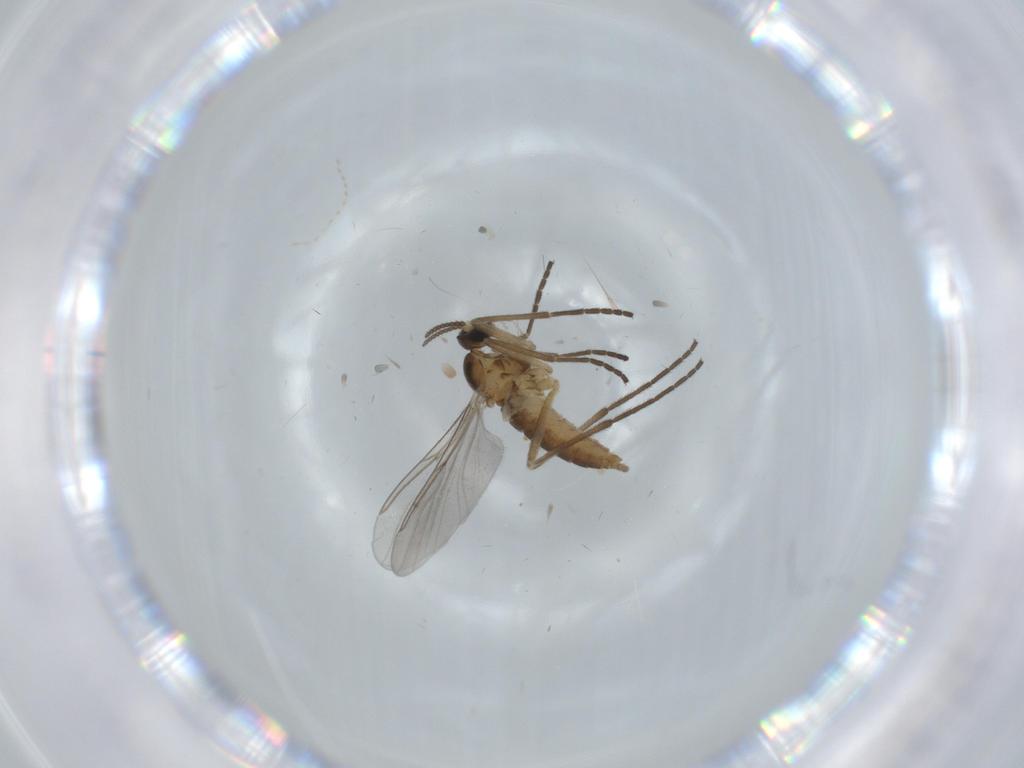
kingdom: Animalia
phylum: Arthropoda
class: Insecta
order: Diptera
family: Cecidomyiidae
